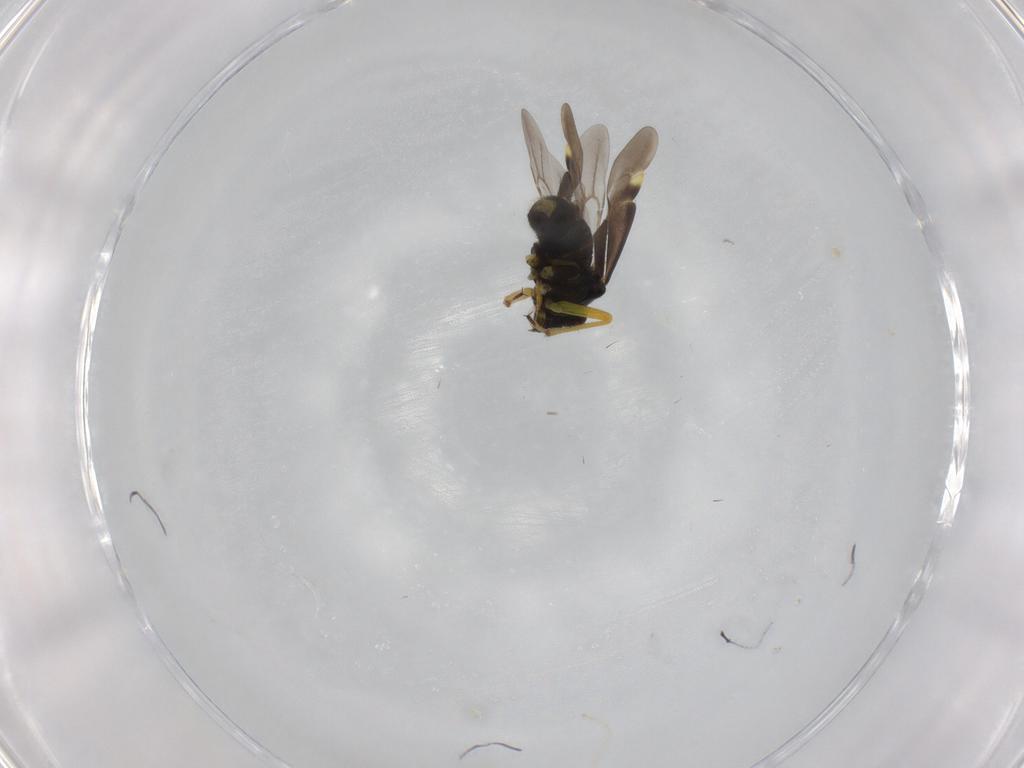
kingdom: Animalia
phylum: Arthropoda
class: Insecta
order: Hemiptera
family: Miridae
